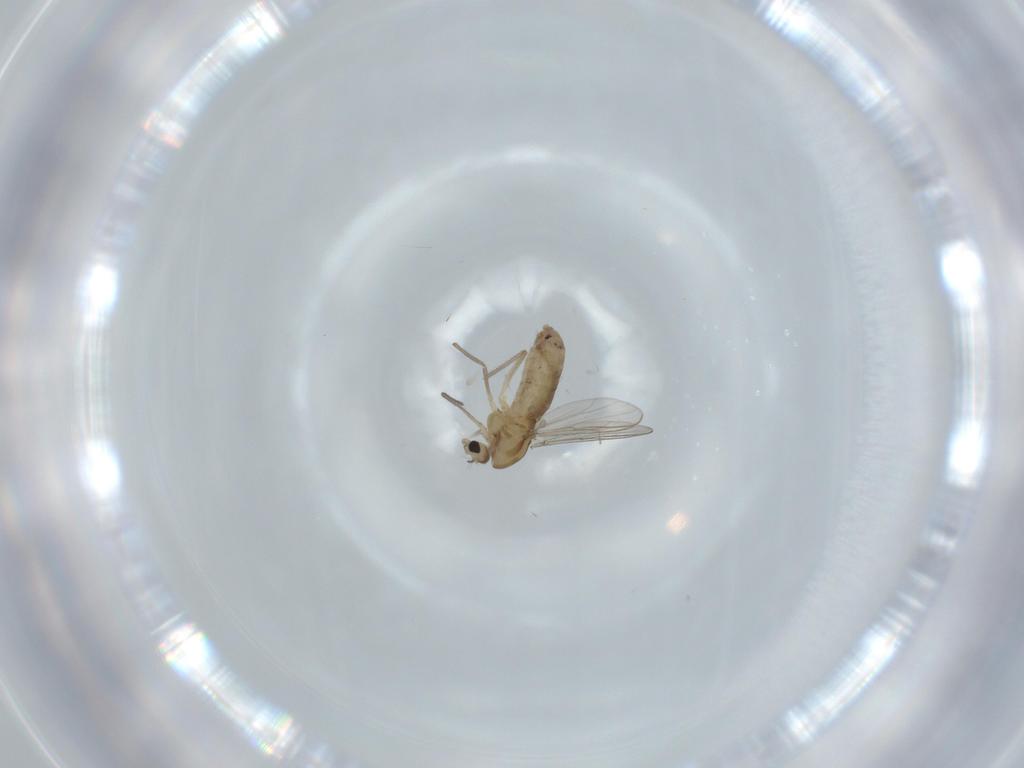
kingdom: Animalia
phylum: Arthropoda
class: Insecta
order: Diptera
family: Chironomidae
